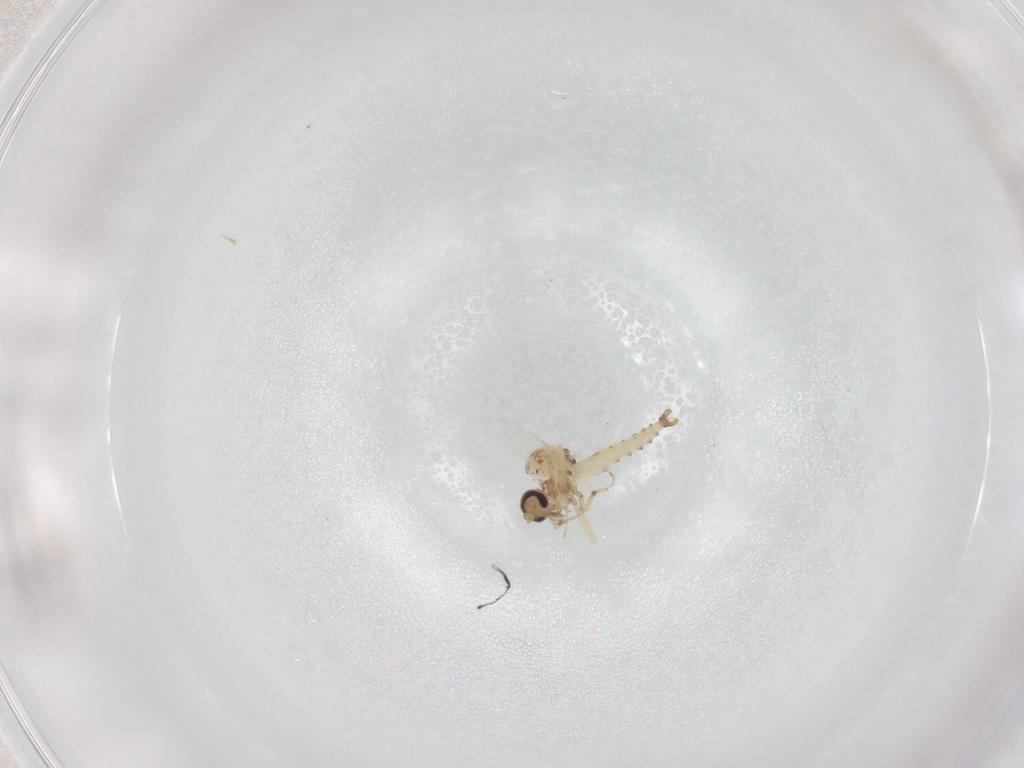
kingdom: Animalia
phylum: Arthropoda
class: Insecta
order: Diptera
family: Ceratopogonidae
